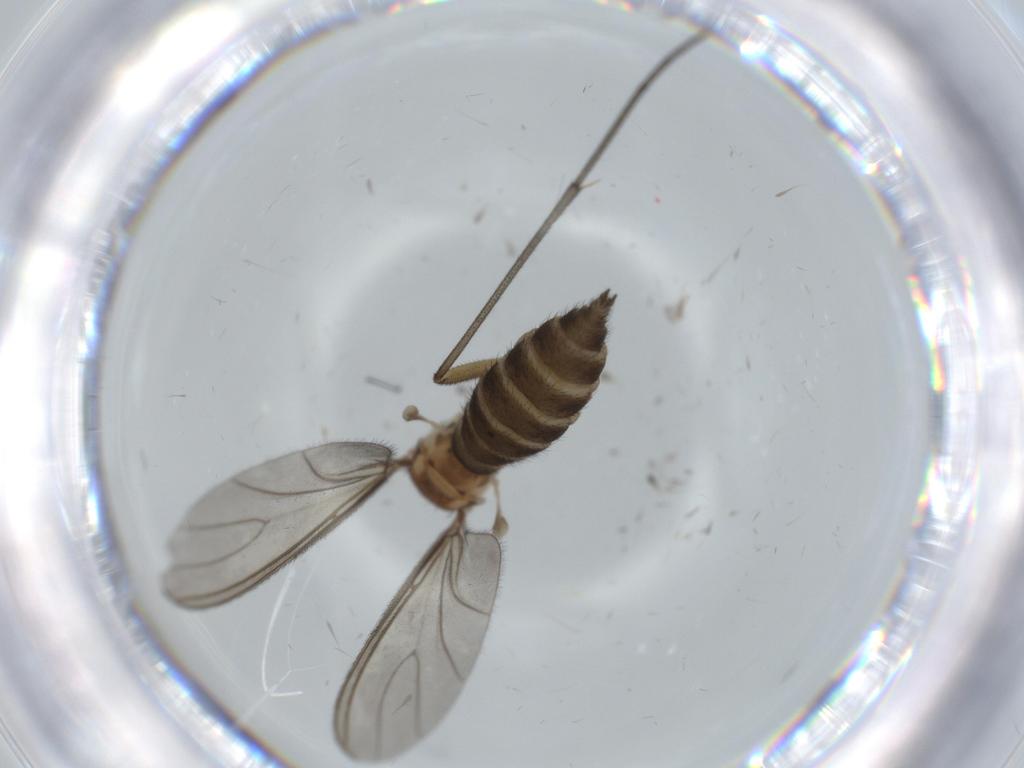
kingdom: Animalia
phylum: Arthropoda
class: Insecta
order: Diptera
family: Sciaridae
